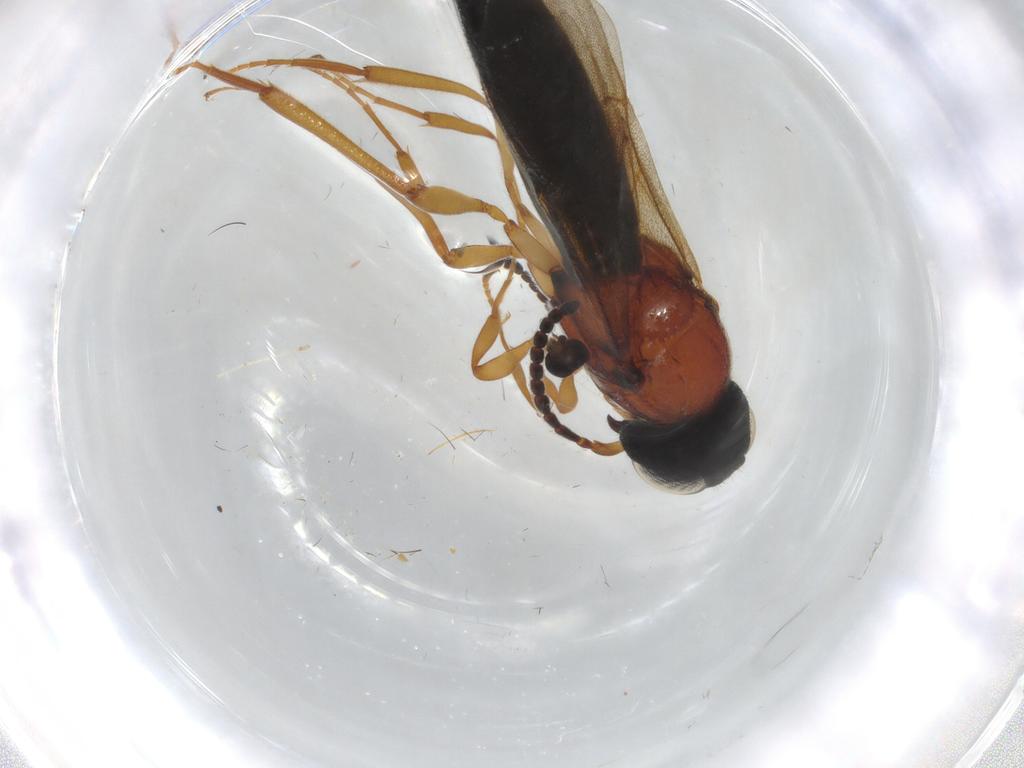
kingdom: Animalia
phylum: Arthropoda
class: Insecta
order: Hymenoptera
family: Scelionidae
